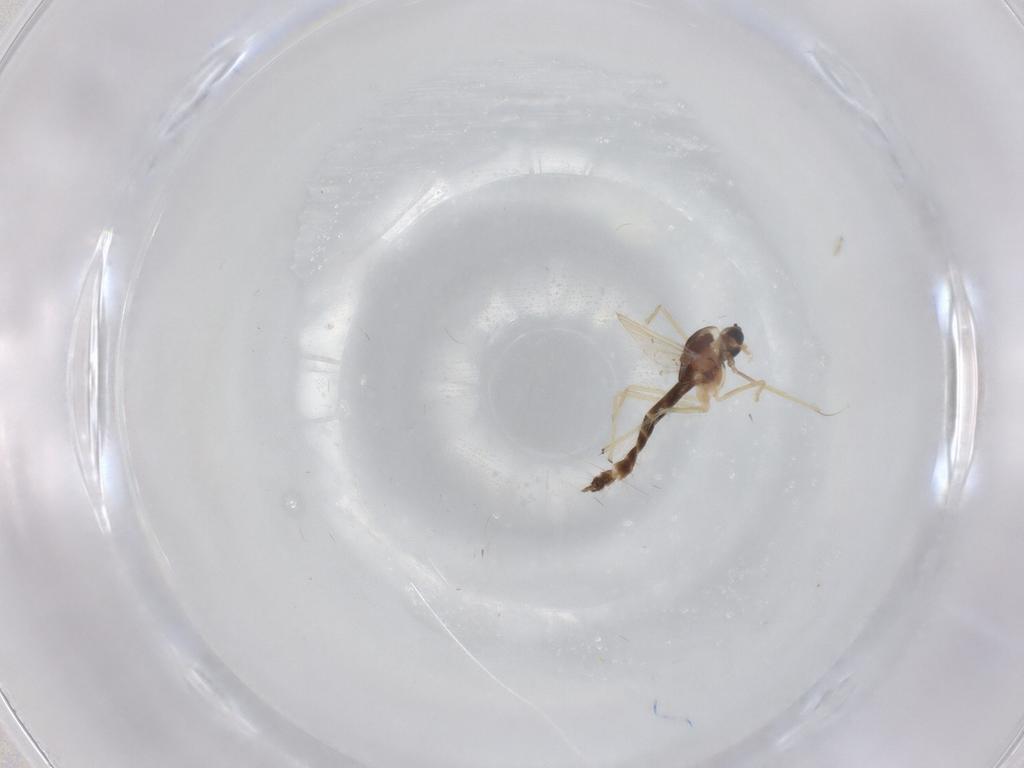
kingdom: Animalia
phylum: Arthropoda
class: Insecta
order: Diptera
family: Chironomidae
